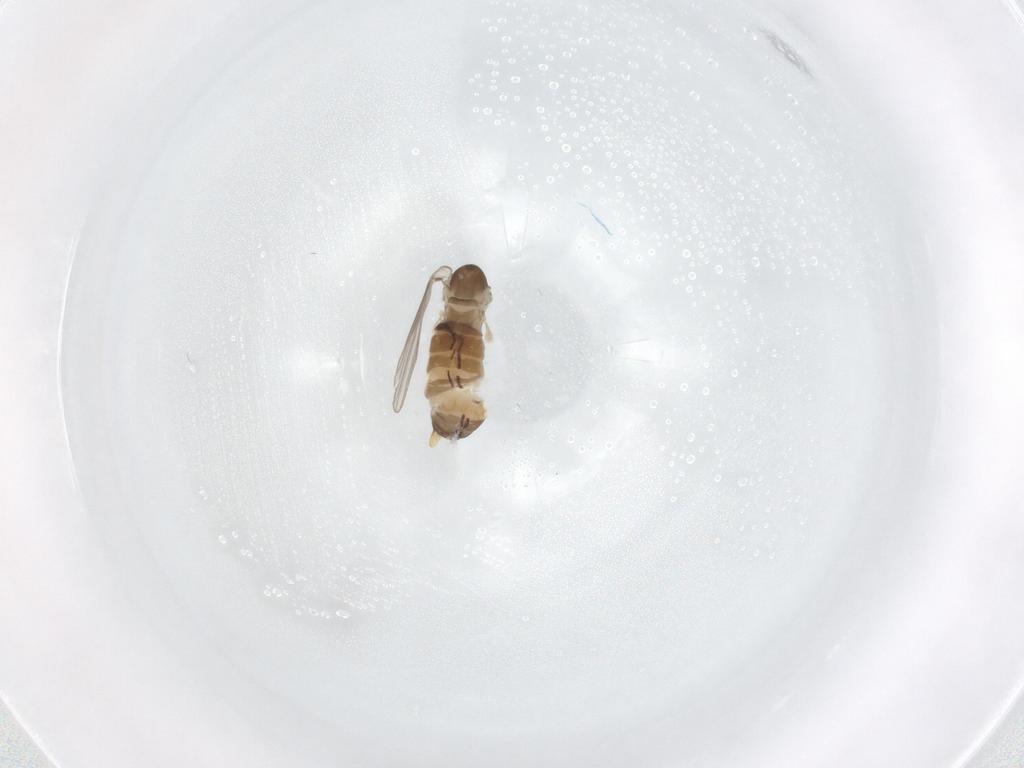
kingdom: Animalia
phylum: Arthropoda
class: Insecta
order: Diptera
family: Psychodidae
